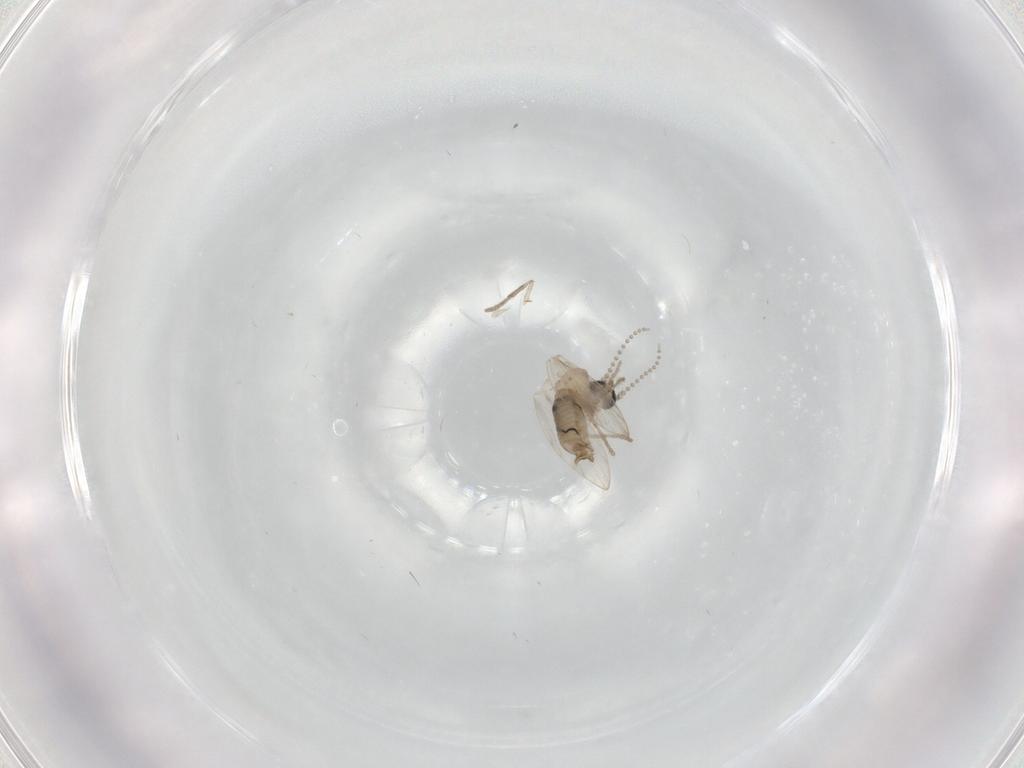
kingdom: Animalia
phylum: Arthropoda
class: Insecta
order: Diptera
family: Psychodidae
